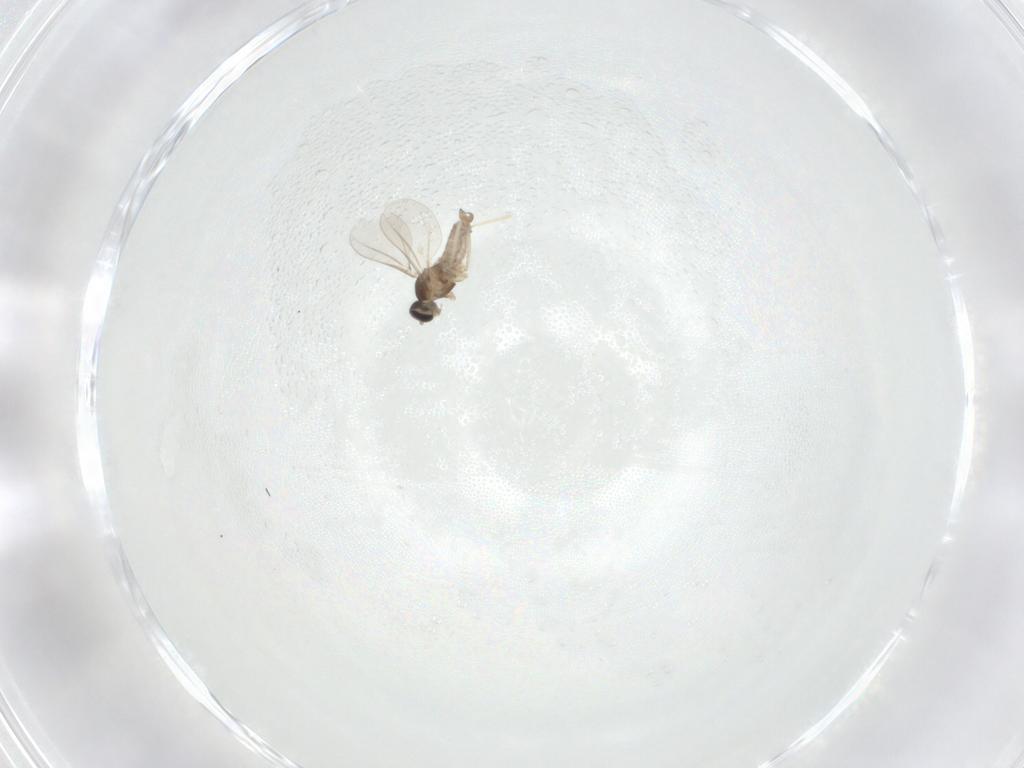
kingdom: Animalia
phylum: Arthropoda
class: Insecta
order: Diptera
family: Cecidomyiidae
